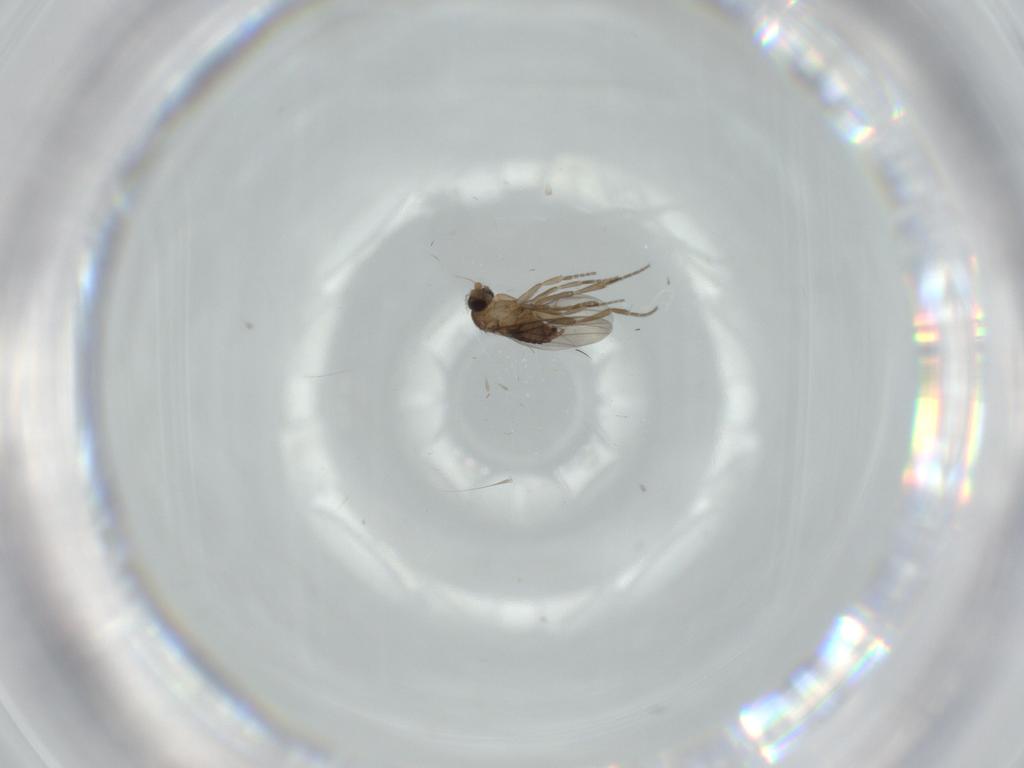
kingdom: Animalia
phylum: Arthropoda
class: Insecta
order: Diptera
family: Phoridae
